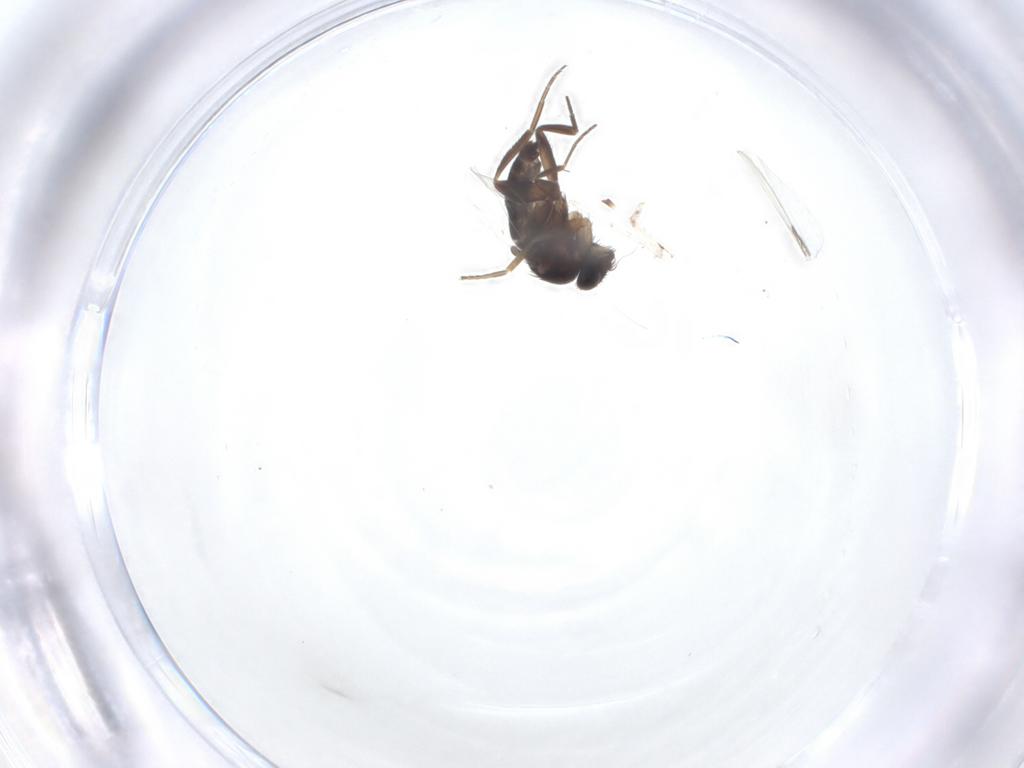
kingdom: Animalia
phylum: Arthropoda
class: Insecta
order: Diptera
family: Phoridae
